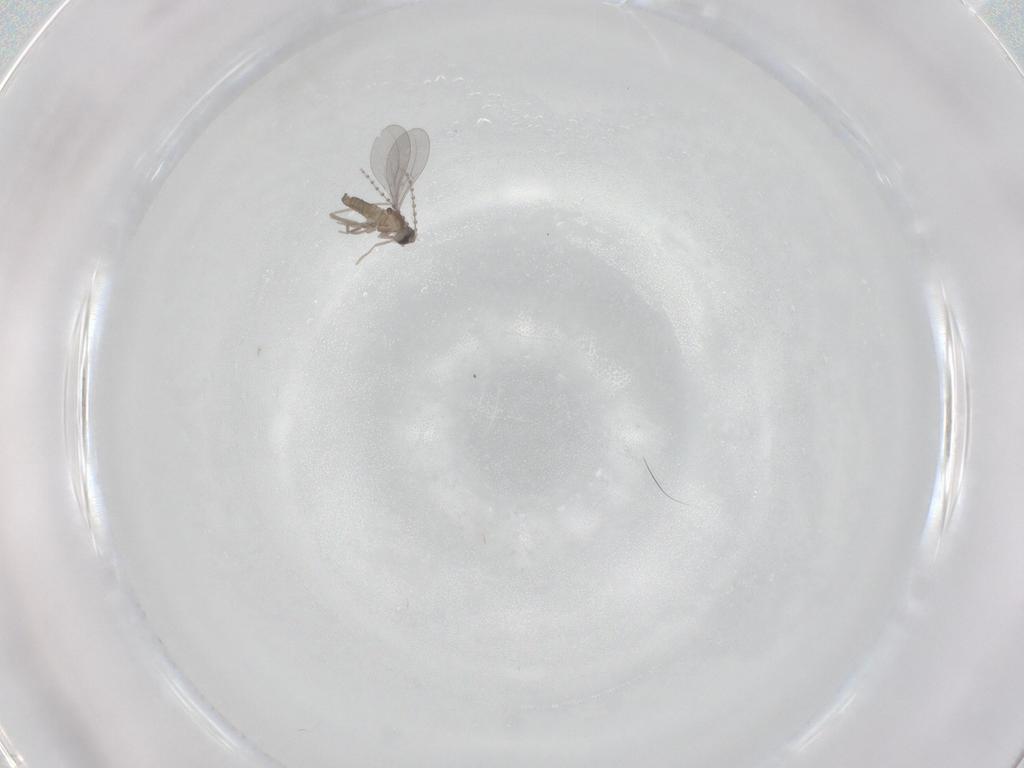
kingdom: Animalia
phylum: Arthropoda
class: Insecta
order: Diptera
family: Cecidomyiidae
